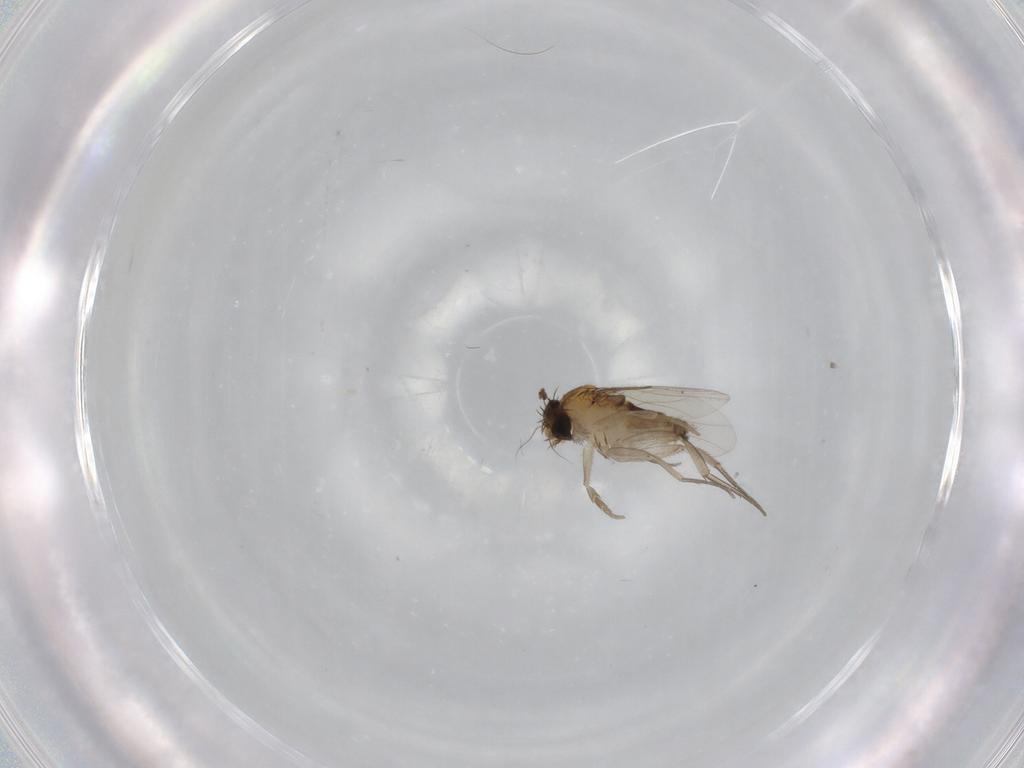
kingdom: Animalia
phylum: Arthropoda
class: Insecta
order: Diptera
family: Phoridae
